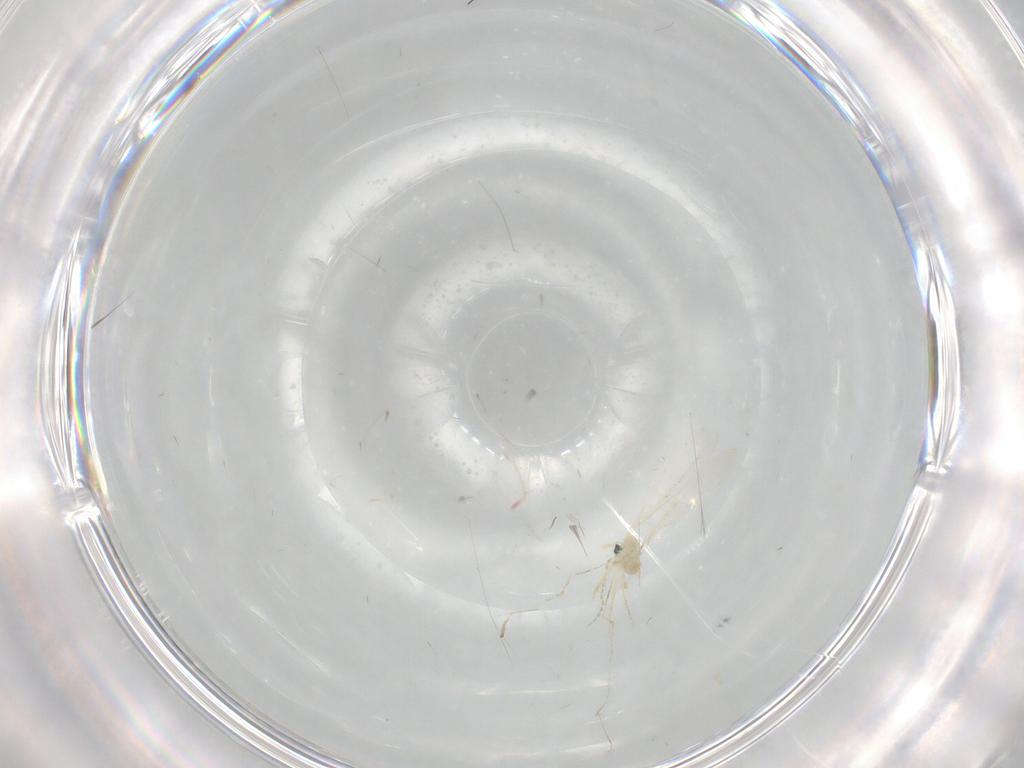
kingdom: Animalia
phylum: Arthropoda
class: Insecta
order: Diptera
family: Cecidomyiidae
